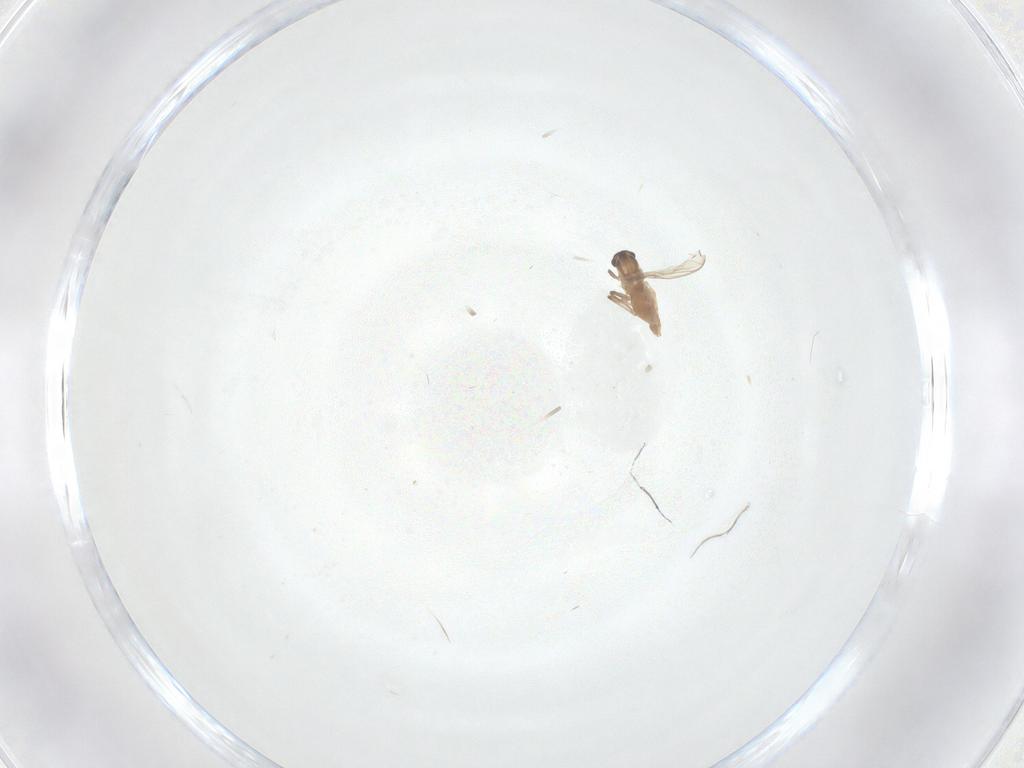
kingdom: Animalia
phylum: Arthropoda
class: Insecta
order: Diptera
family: Chironomidae
